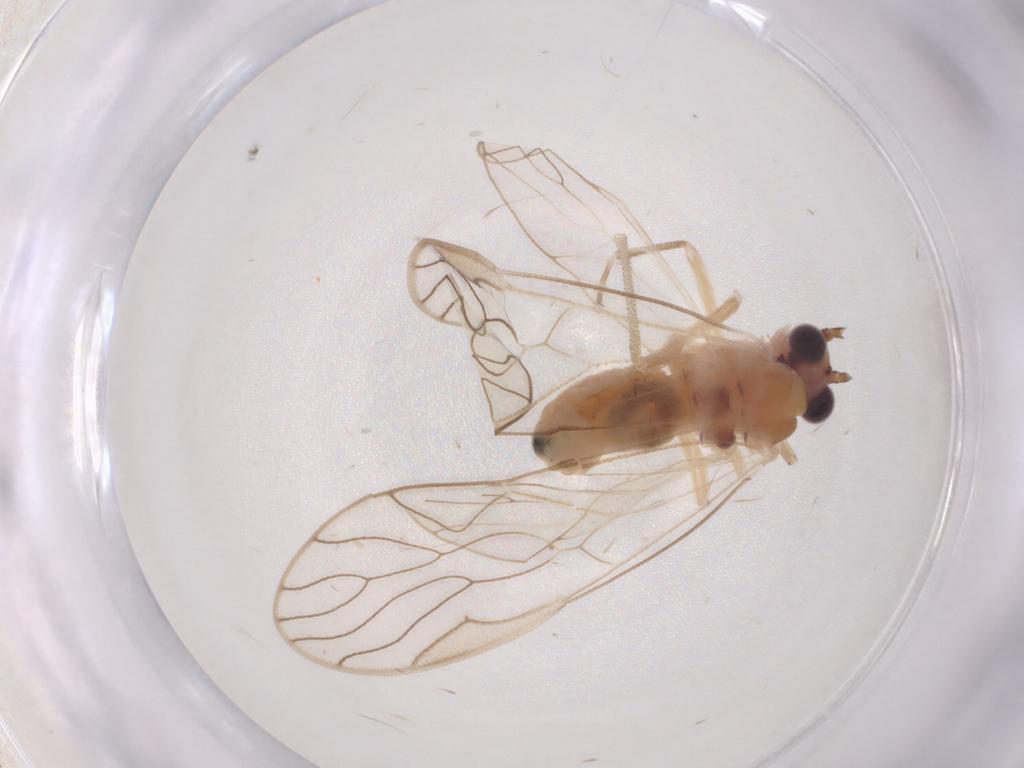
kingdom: Animalia
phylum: Arthropoda
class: Insecta
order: Psocodea
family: Amphipsocidae
